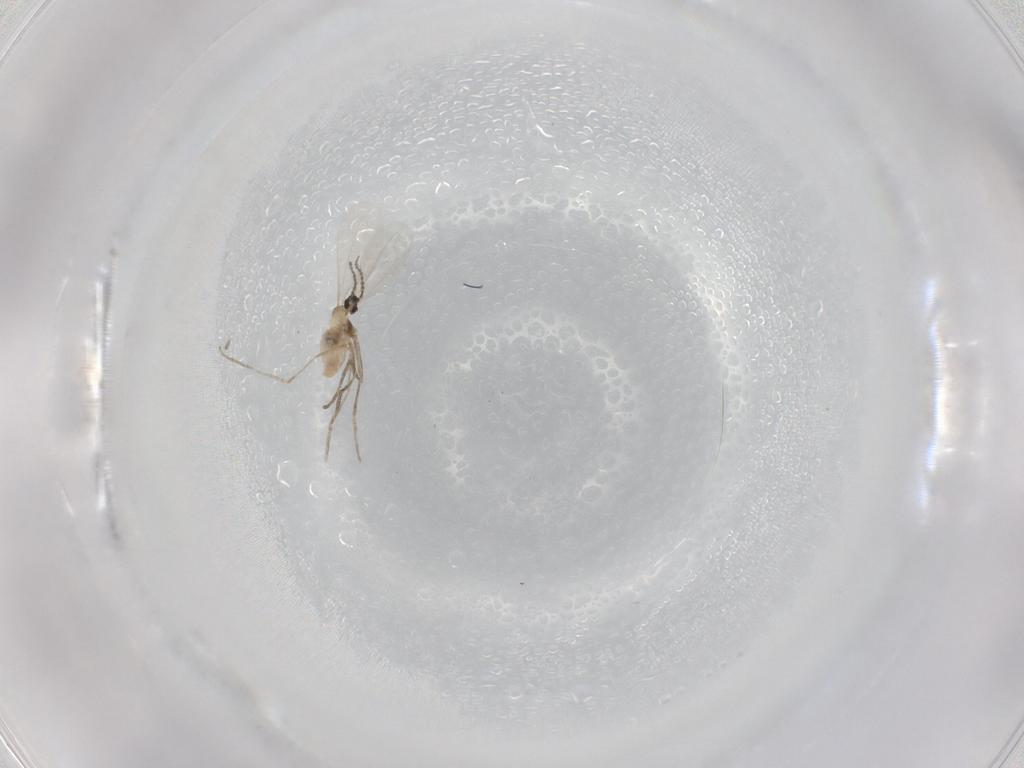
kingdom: Animalia
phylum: Arthropoda
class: Insecta
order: Diptera
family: Cecidomyiidae
